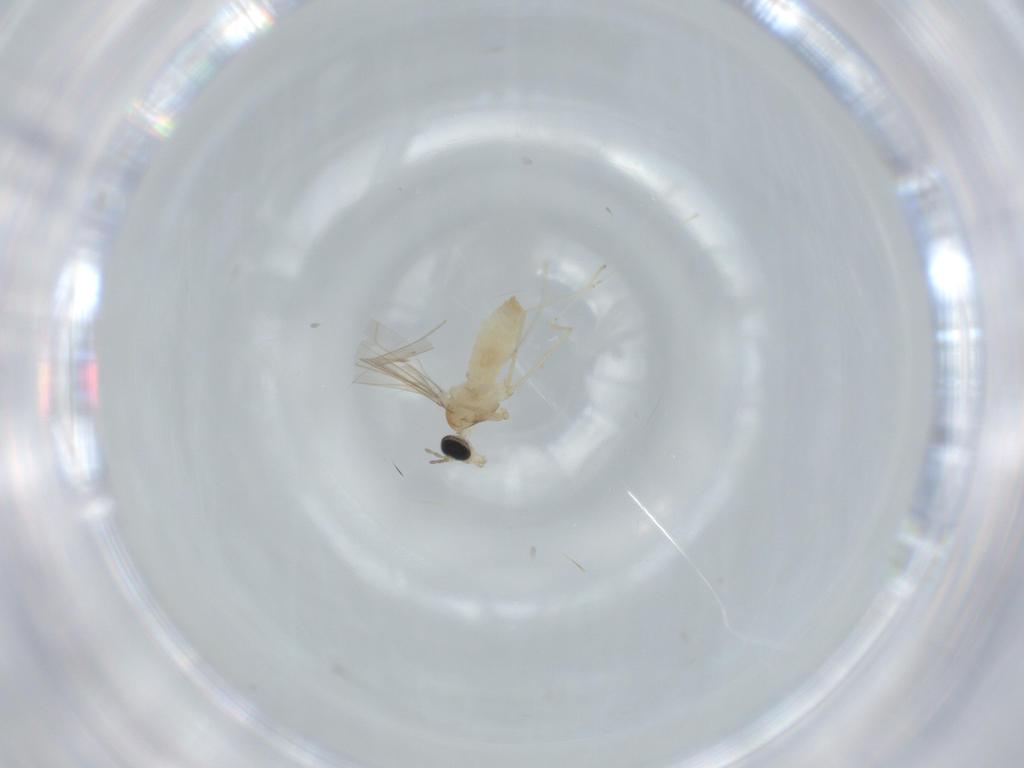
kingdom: Animalia
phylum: Arthropoda
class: Insecta
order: Diptera
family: Cecidomyiidae
